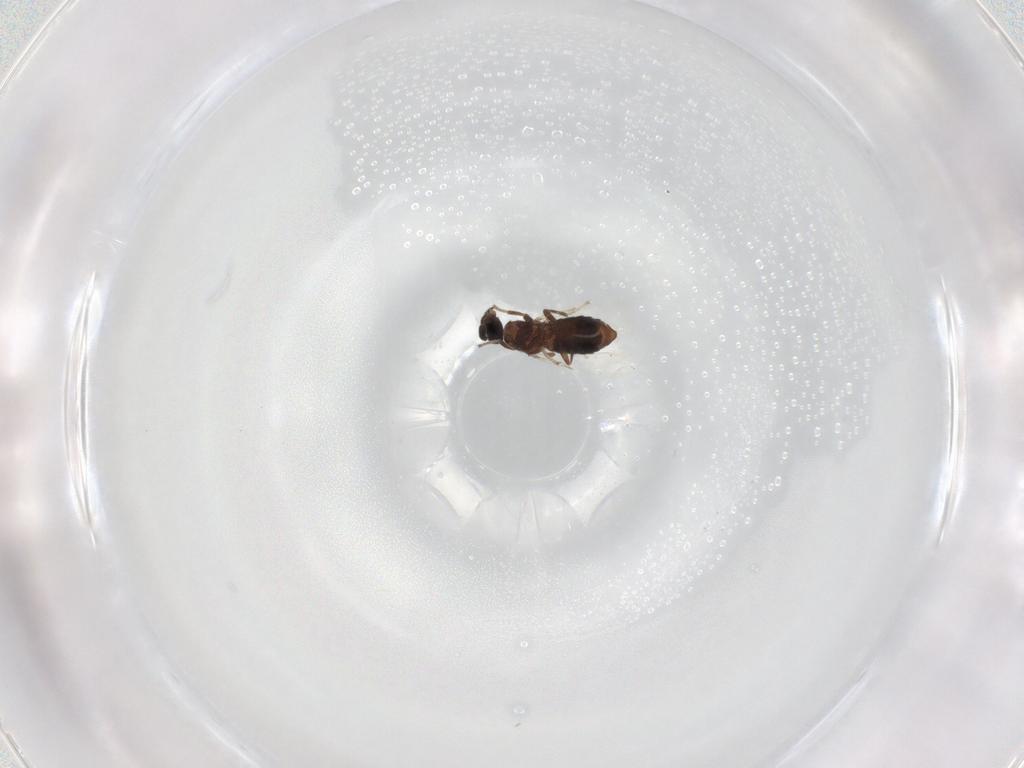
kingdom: Animalia
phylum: Arthropoda
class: Insecta
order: Diptera
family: Scatopsidae
